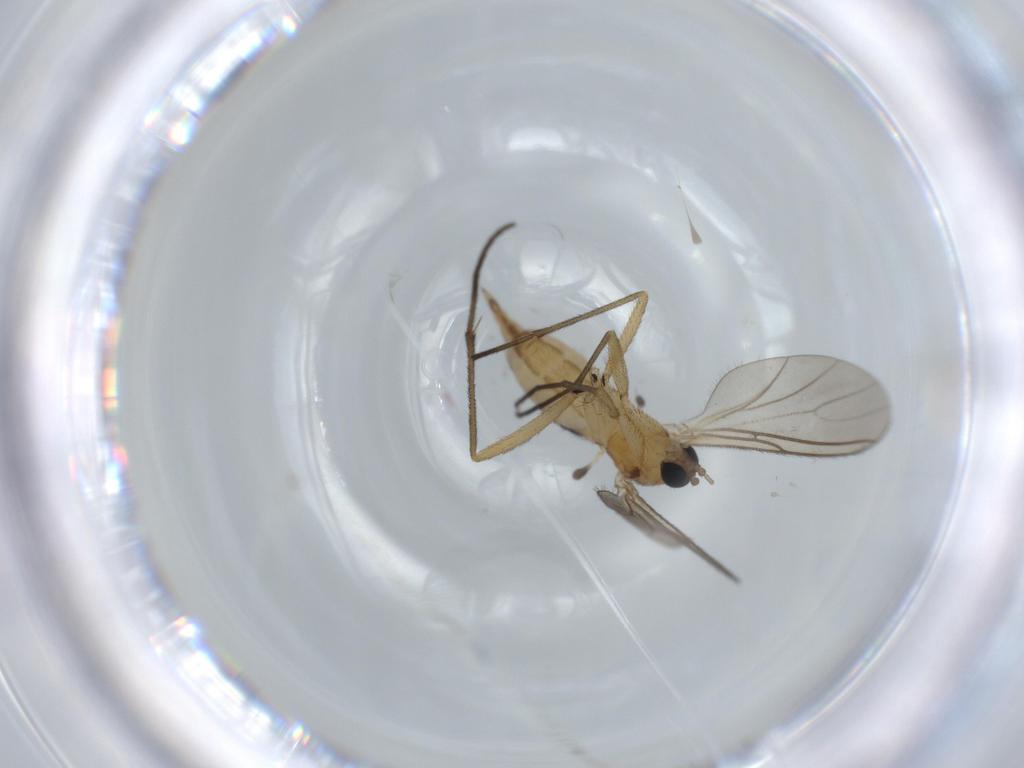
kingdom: Animalia
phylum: Arthropoda
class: Insecta
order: Diptera
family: Sciaridae
